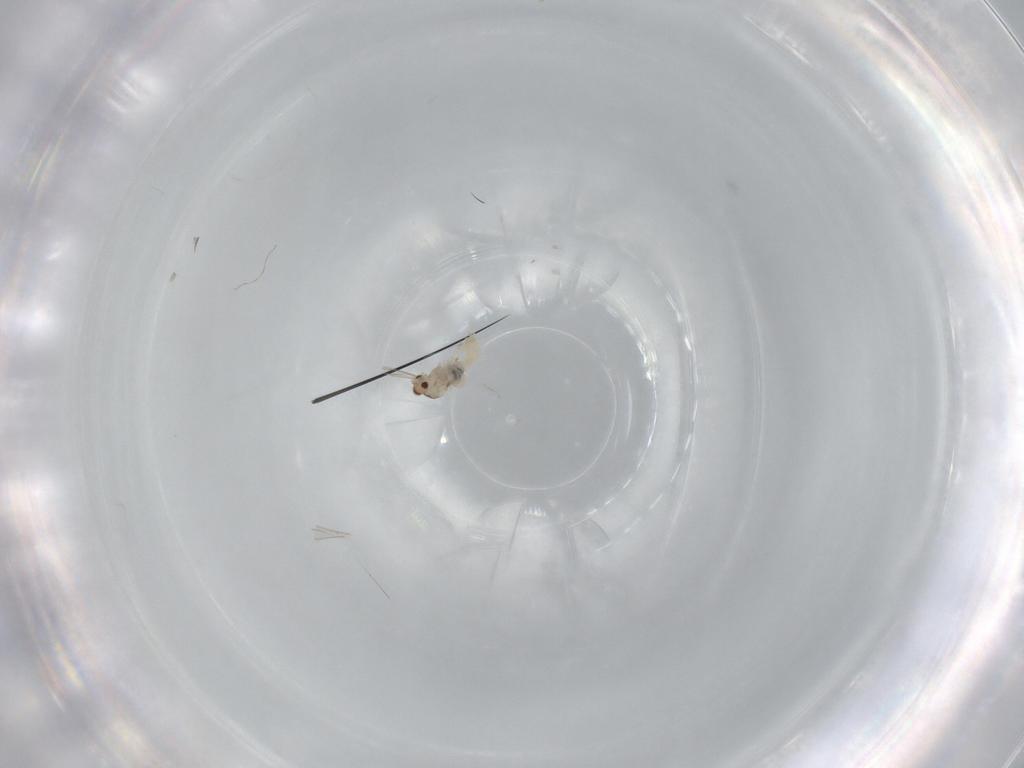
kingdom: Animalia
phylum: Arthropoda
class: Insecta
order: Diptera
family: Cecidomyiidae
